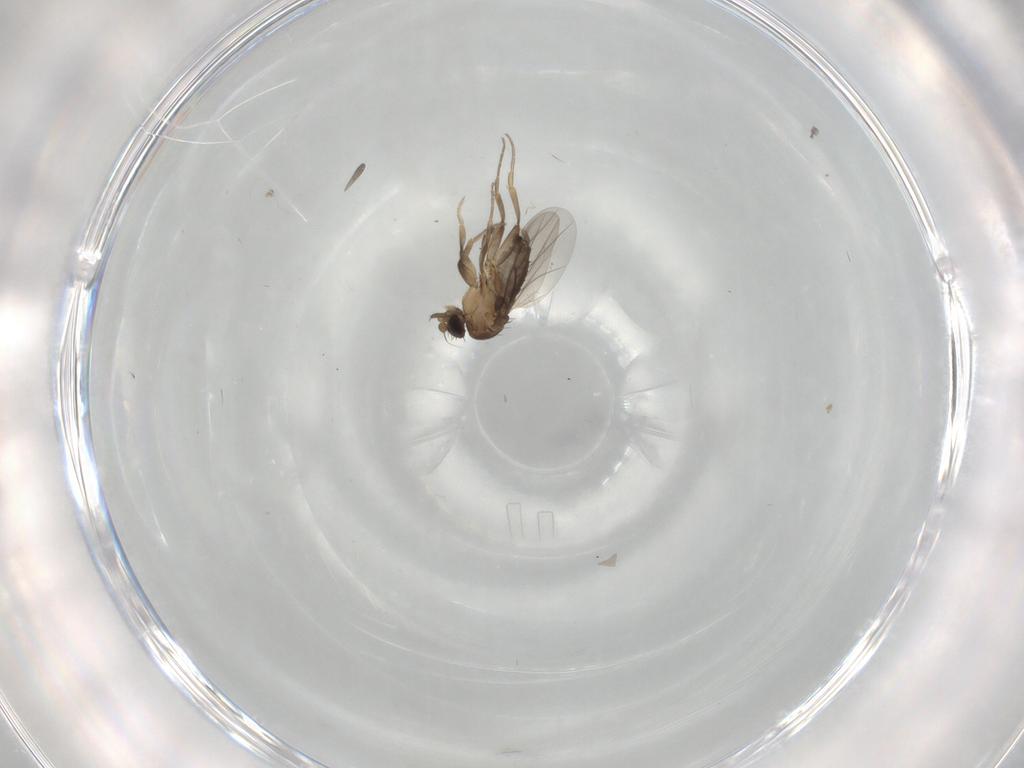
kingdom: Animalia
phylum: Arthropoda
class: Insecta
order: Diptera
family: Phoridae
